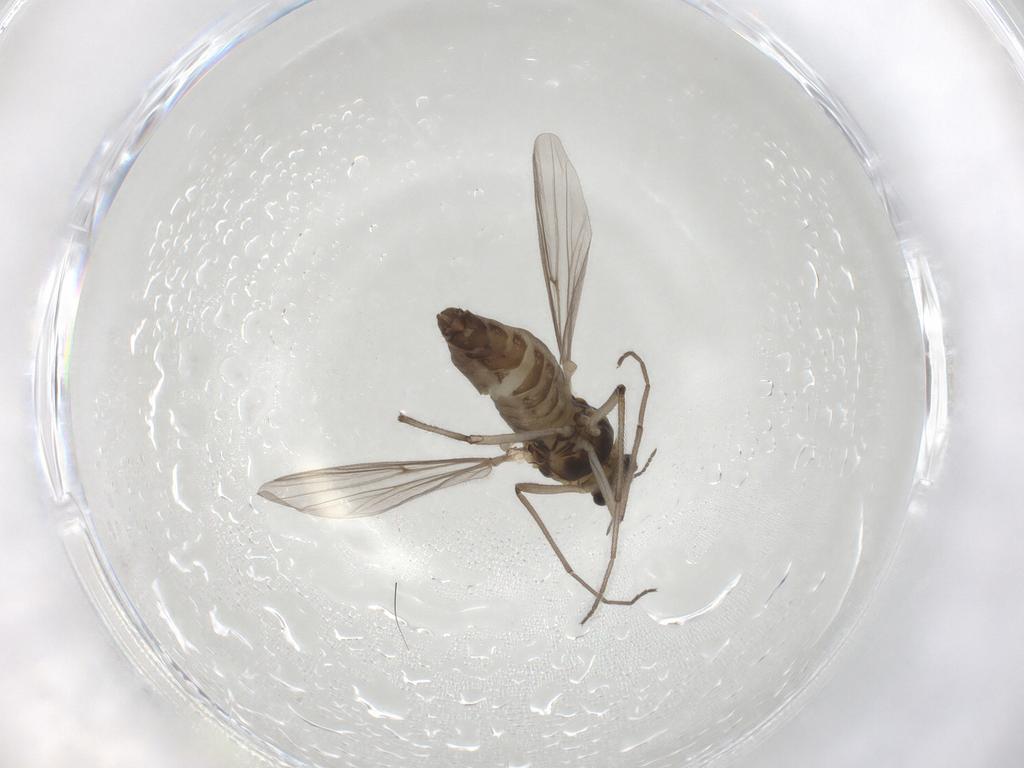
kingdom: Animalia
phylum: Arthropoda
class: Insecta
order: Diptera
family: Chironomidae
